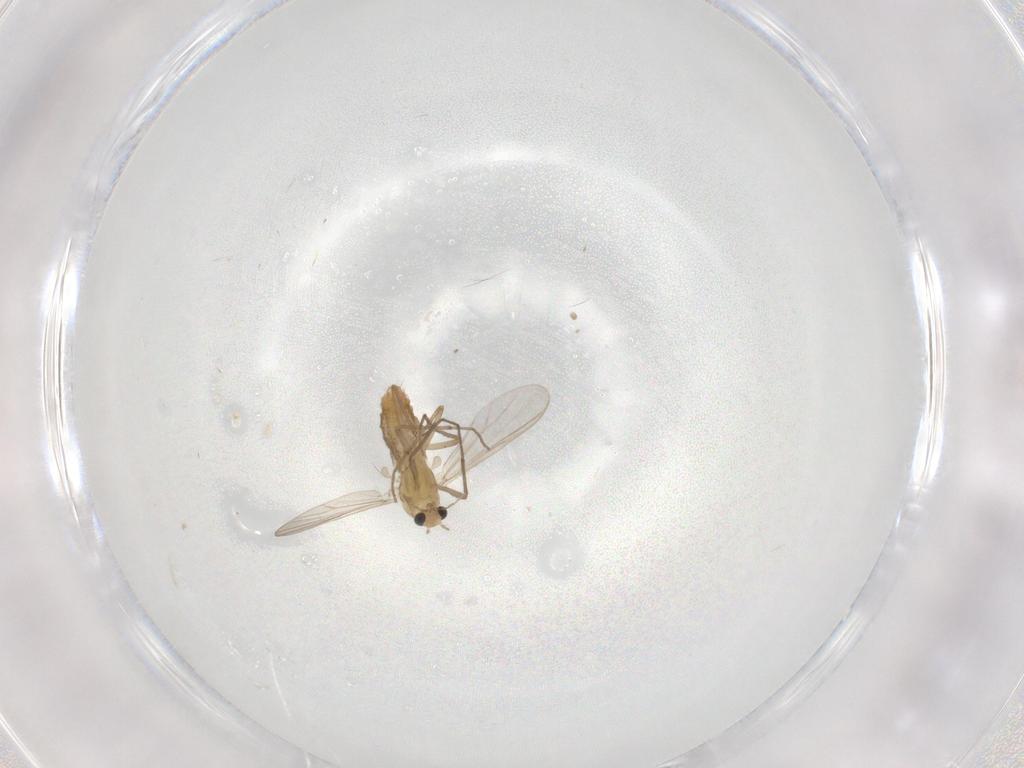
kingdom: Animalia
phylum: Arthropoda
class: Insecta
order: Diptera
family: Chironomidae
